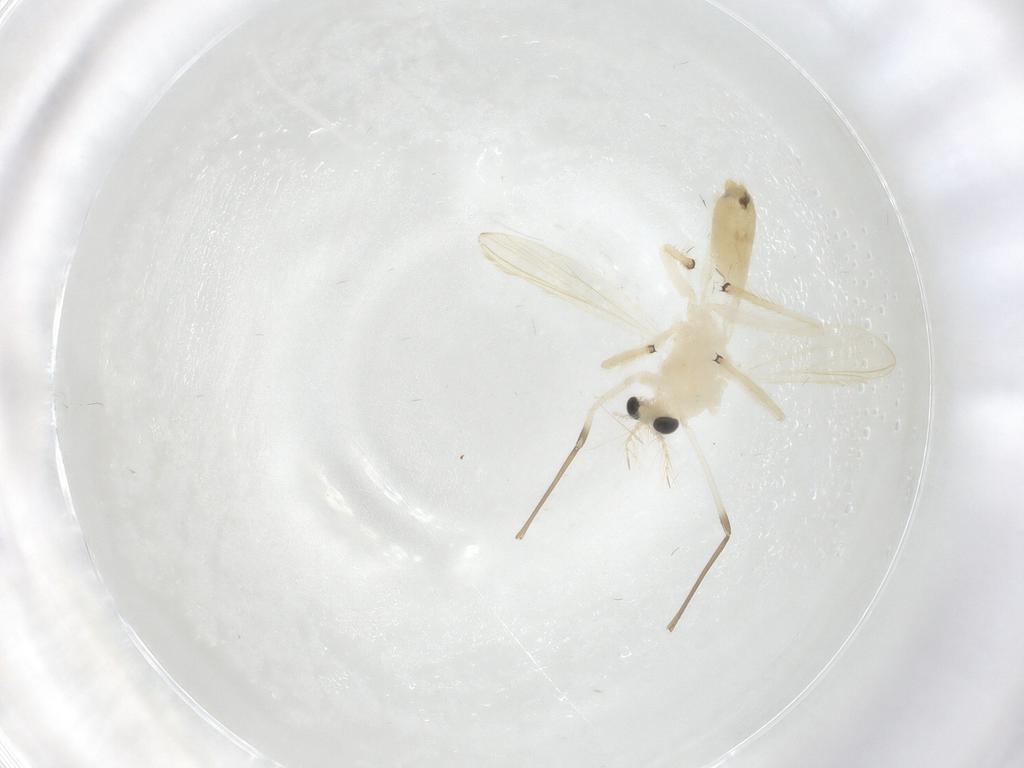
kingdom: Animalia
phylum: Arthropoda
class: Insecta
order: Diptera
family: Chironomidae
